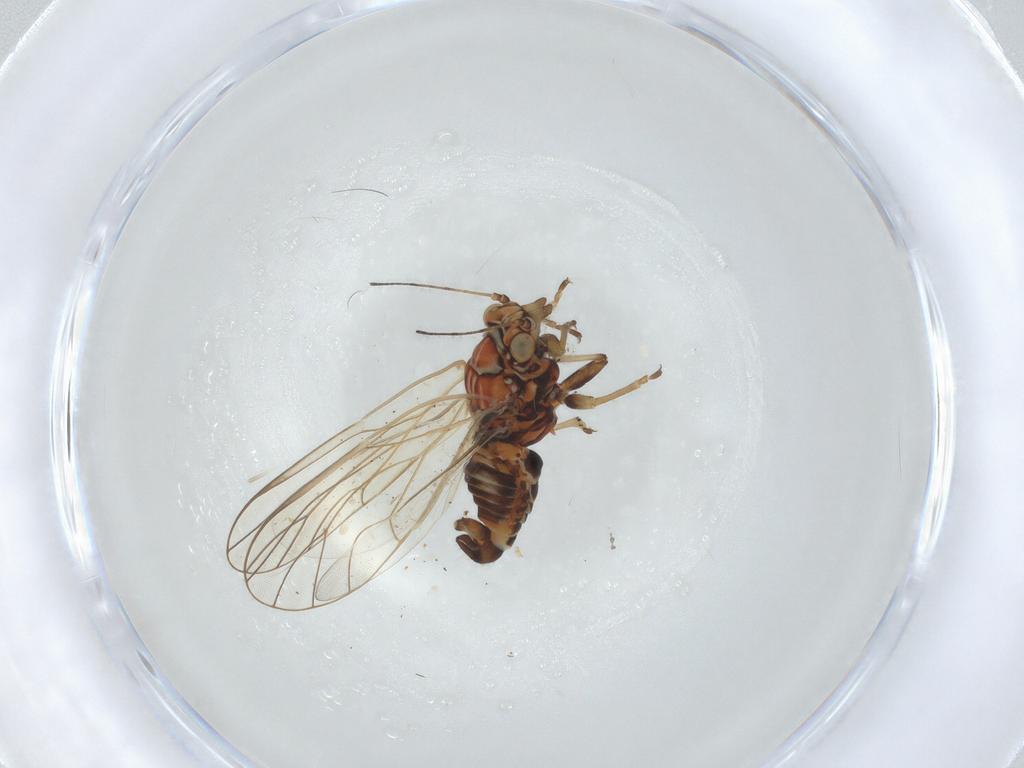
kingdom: Animalia
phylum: Arthropoda
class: Insecta
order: Hemiptera
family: Psyllidae
